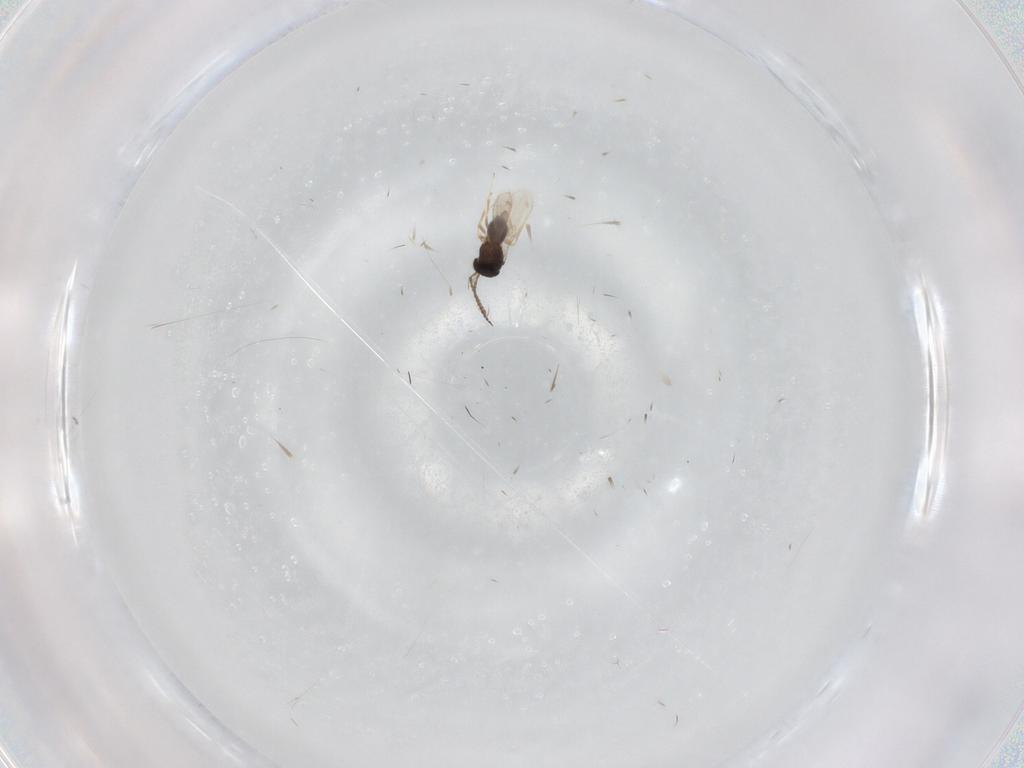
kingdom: Animalia
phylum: Arthropoda
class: Insecta
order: Hymenoptera
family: Scelionidae
